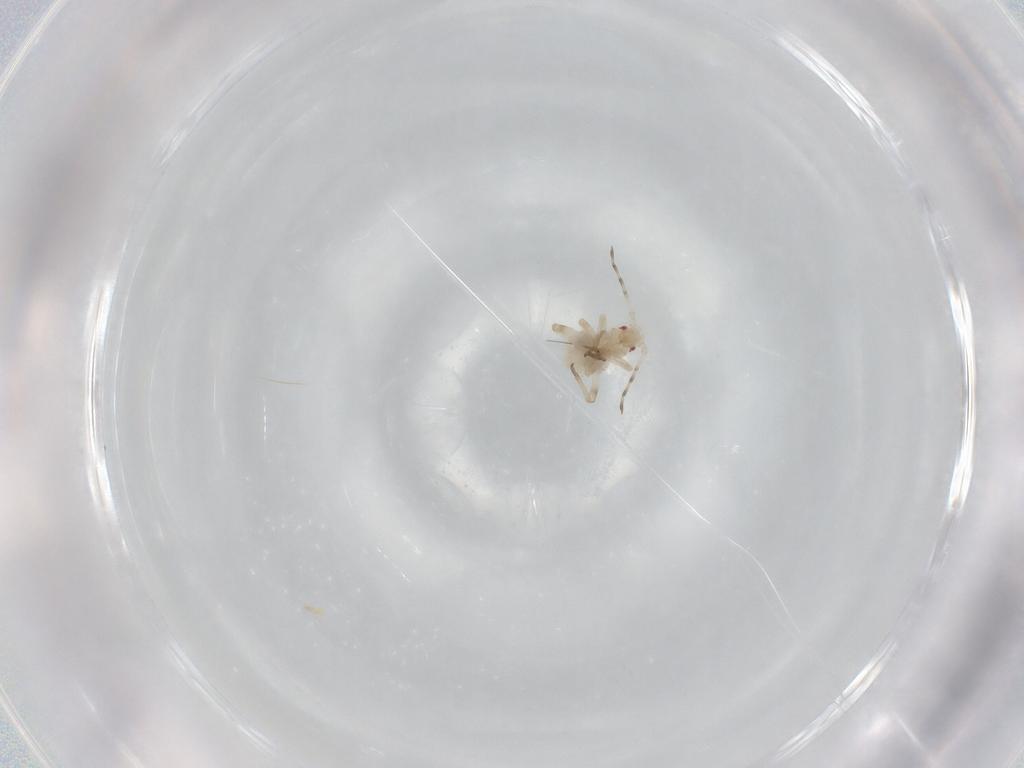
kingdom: Animalia
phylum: Arthropoda
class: Insecta
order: Hemiptera
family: Aphididae
